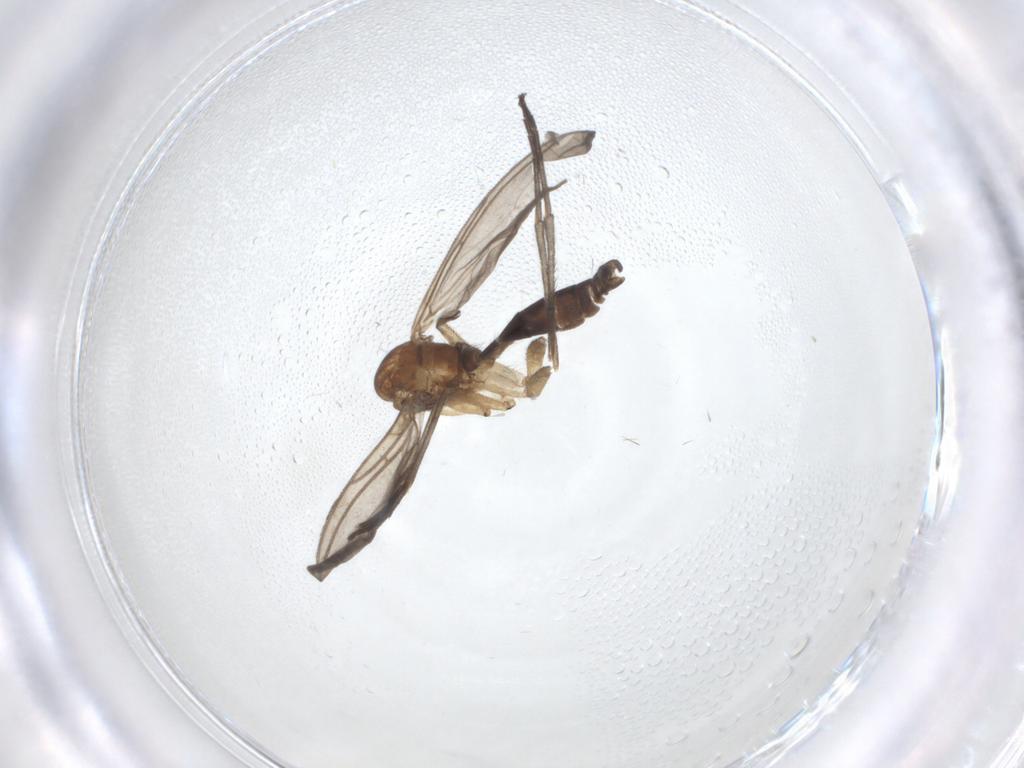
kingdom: Animalia
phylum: Arthropoda
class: Insecta
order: Diptera
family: Sciaridae
